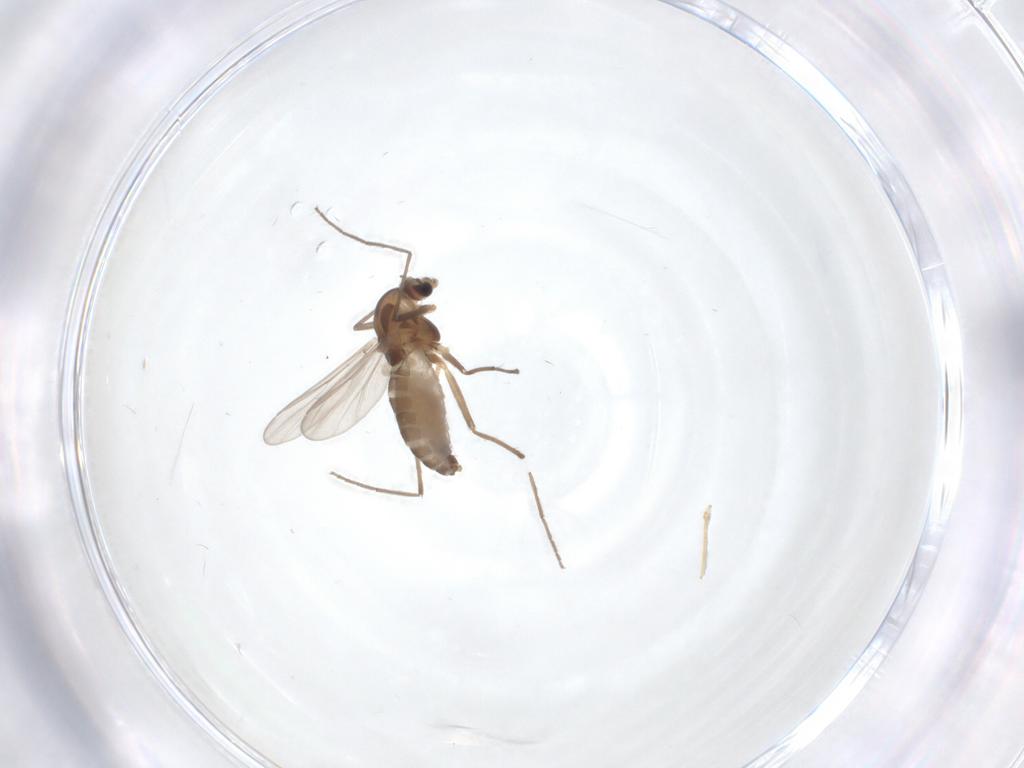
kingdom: Animalia
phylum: Arthropoda
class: Insecta
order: Diptera
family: Chironomidae
